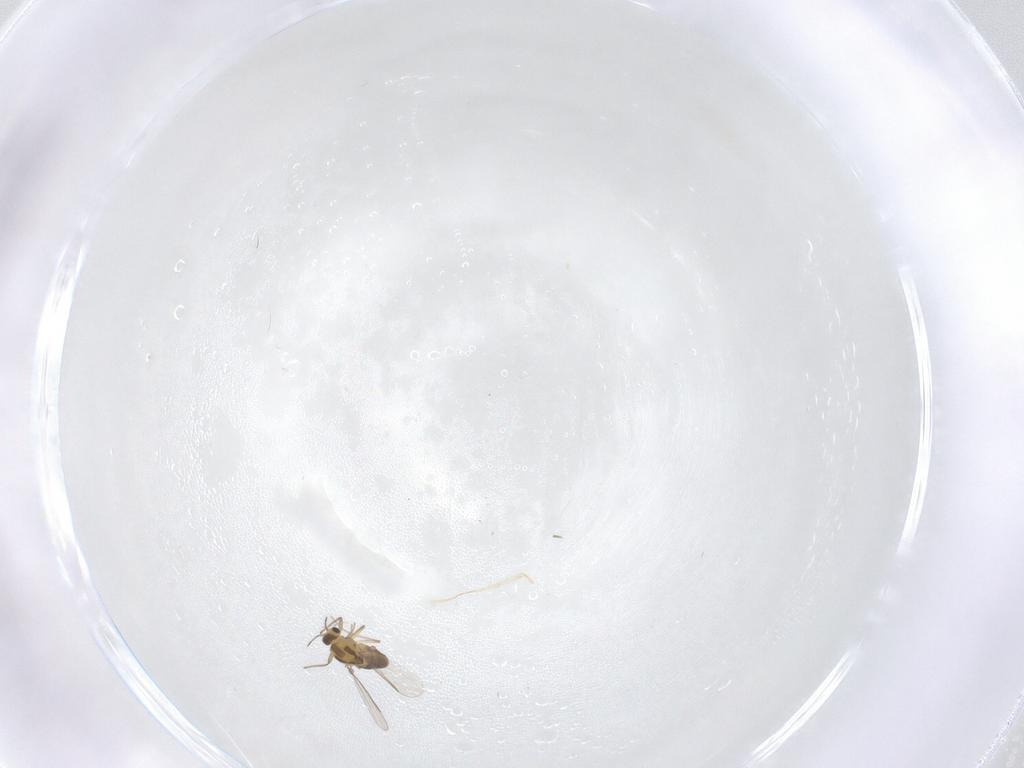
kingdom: Animalia
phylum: Arthropoda
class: Insecta
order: Diptera
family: Chironomidae
